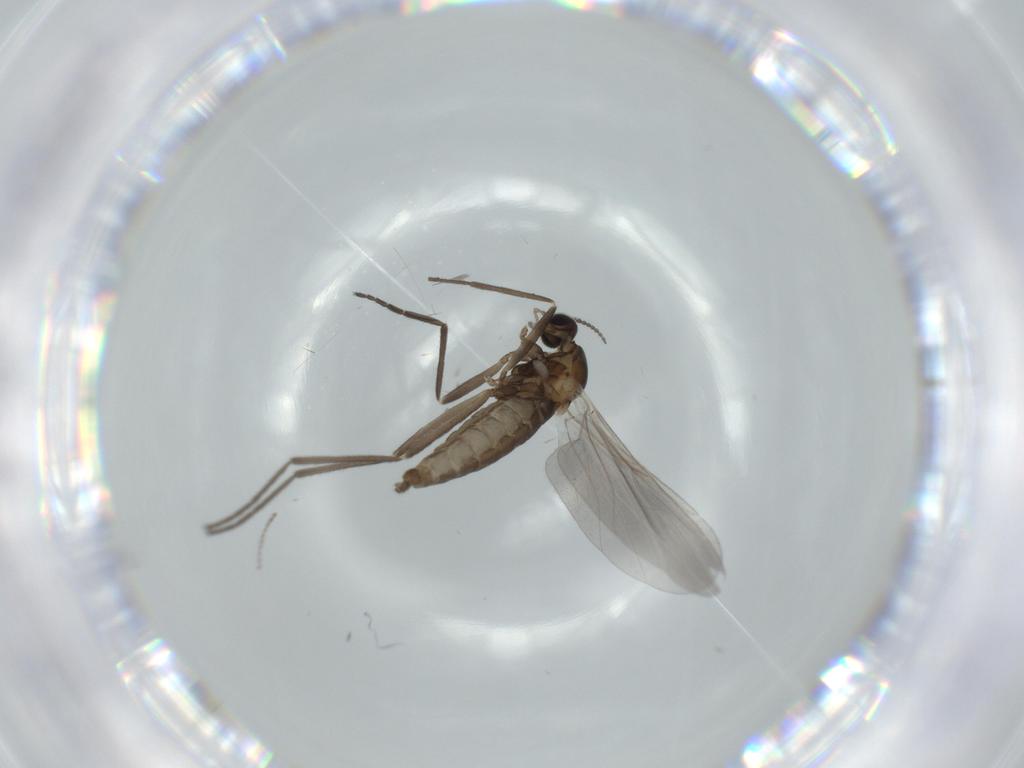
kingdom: Animalia
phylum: Arthropoda
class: Insecta
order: Diptera
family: Cecidomyiidae
